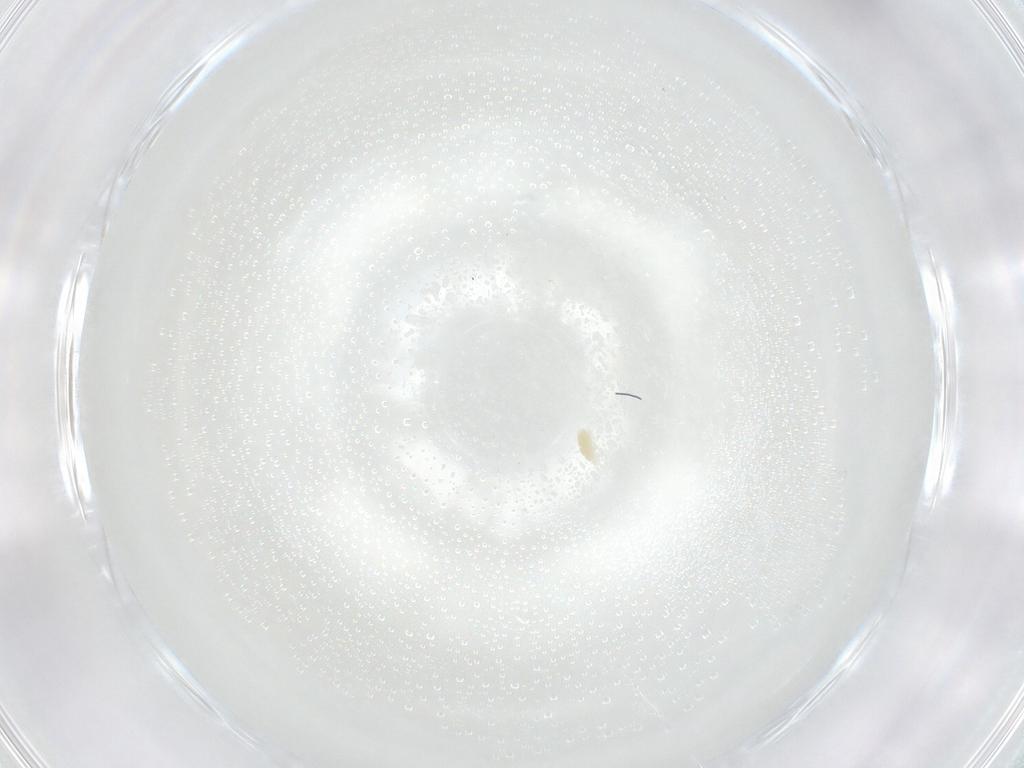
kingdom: Animalia
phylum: Arthropoda
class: Arachnida
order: Trombidiformes
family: Eupodidae
